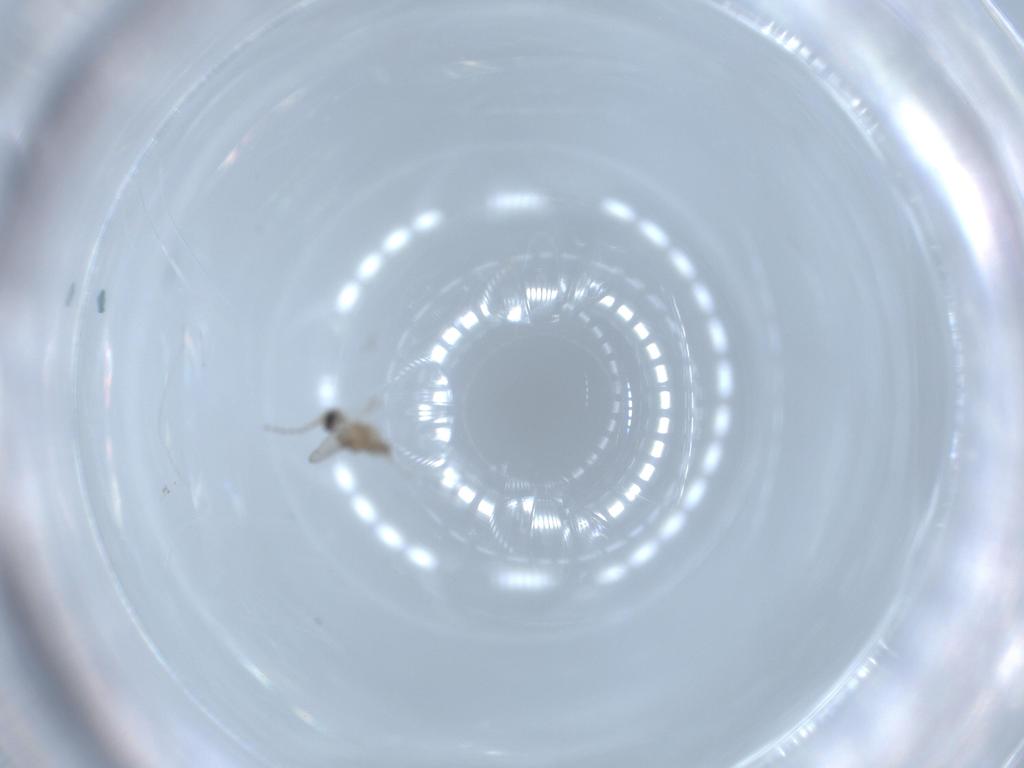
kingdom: Animalia
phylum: Arthropoda
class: Insecta
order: Diptera
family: Cecidomyiidae
